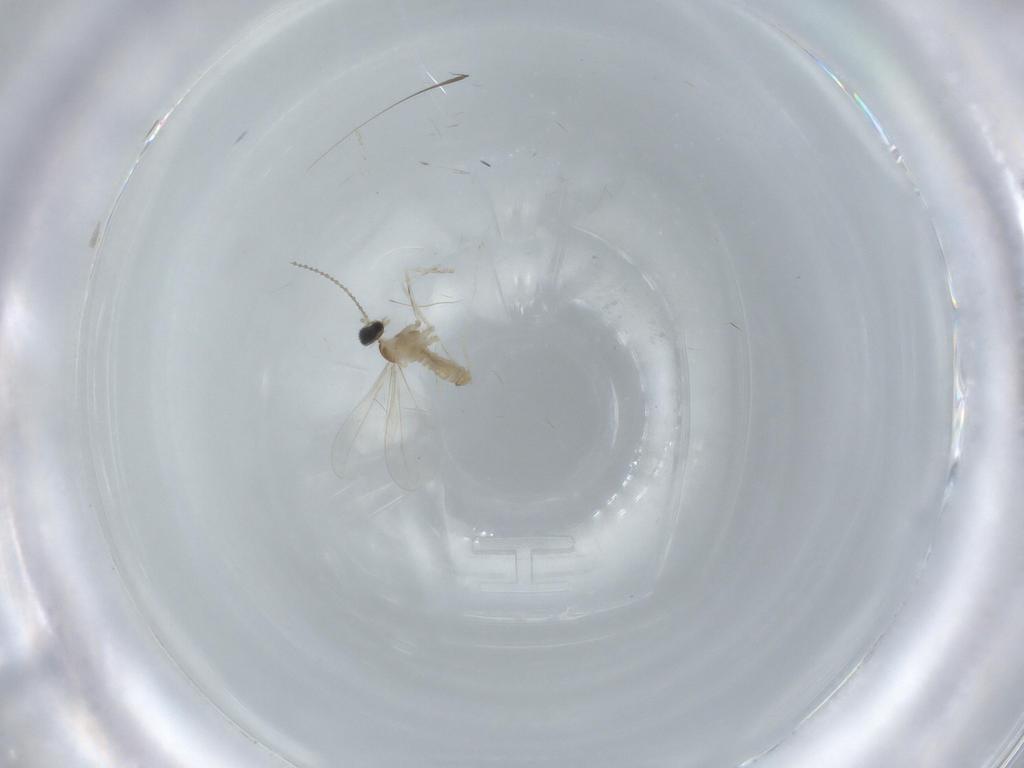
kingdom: Animalia
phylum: Arthropoda
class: Insecta
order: Diptera
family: Cecidomyiidae
